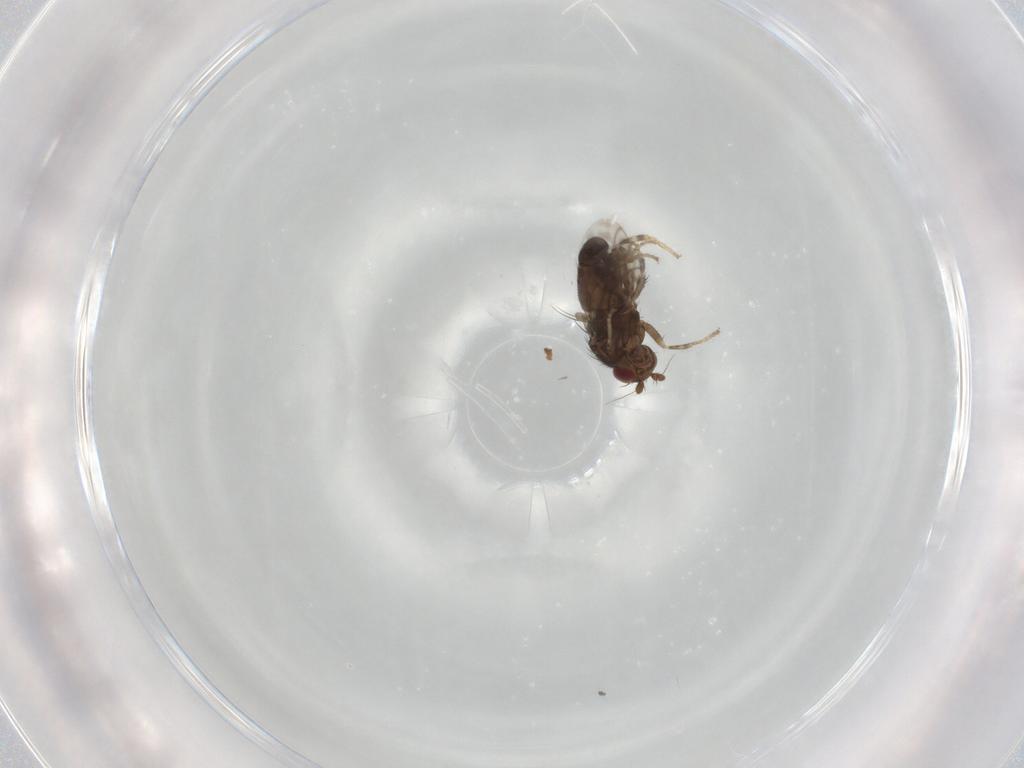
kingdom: Animalia
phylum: Arthropoda
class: Insecta
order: Diptera
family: Sphaeroceridae
